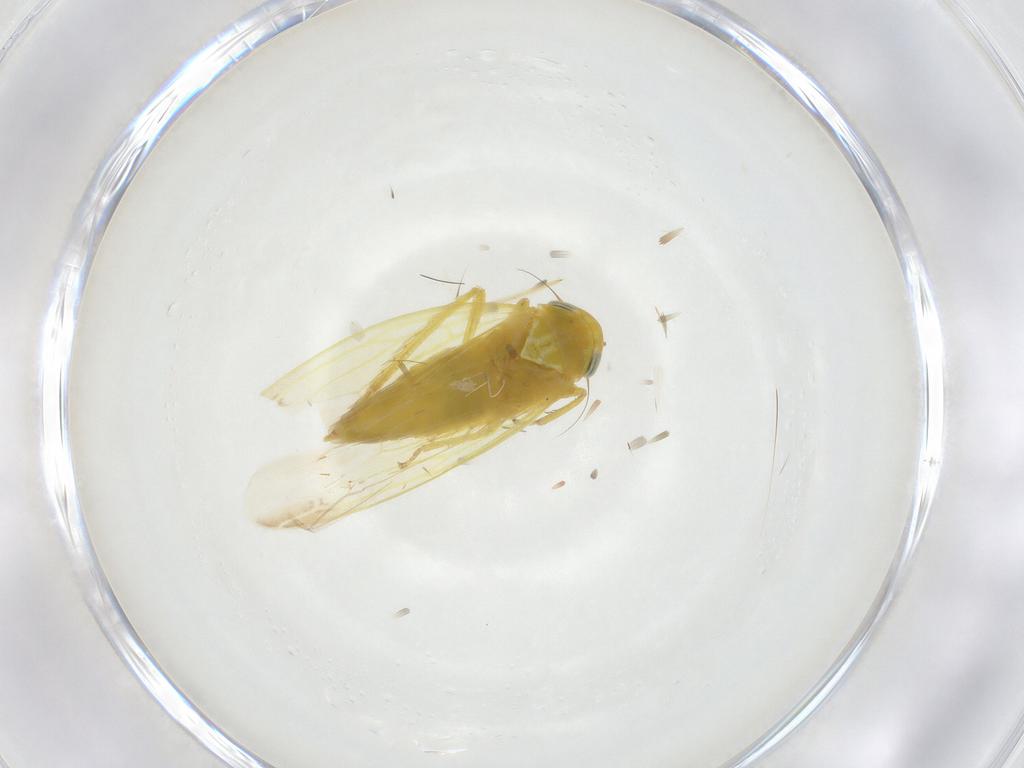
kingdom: Animalia
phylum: Arthropoda
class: Insecta
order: Hemiptera
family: Cicadellidae
